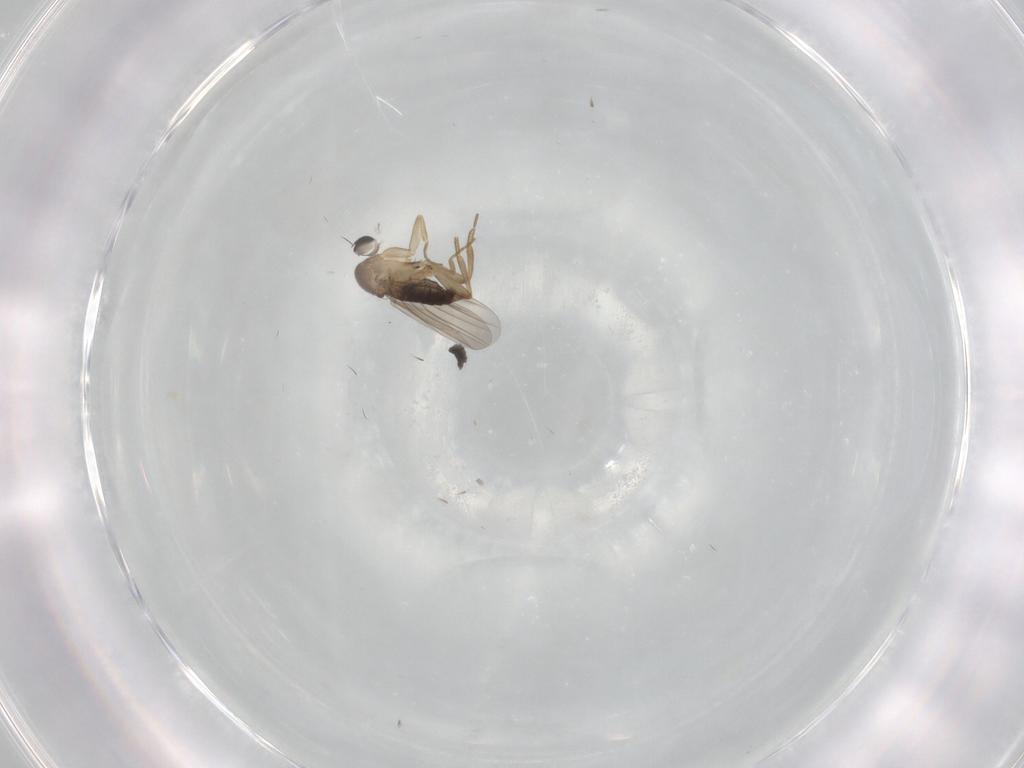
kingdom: Animalia
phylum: Arthropoda
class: Insecta
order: Diptera
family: Phoridae
